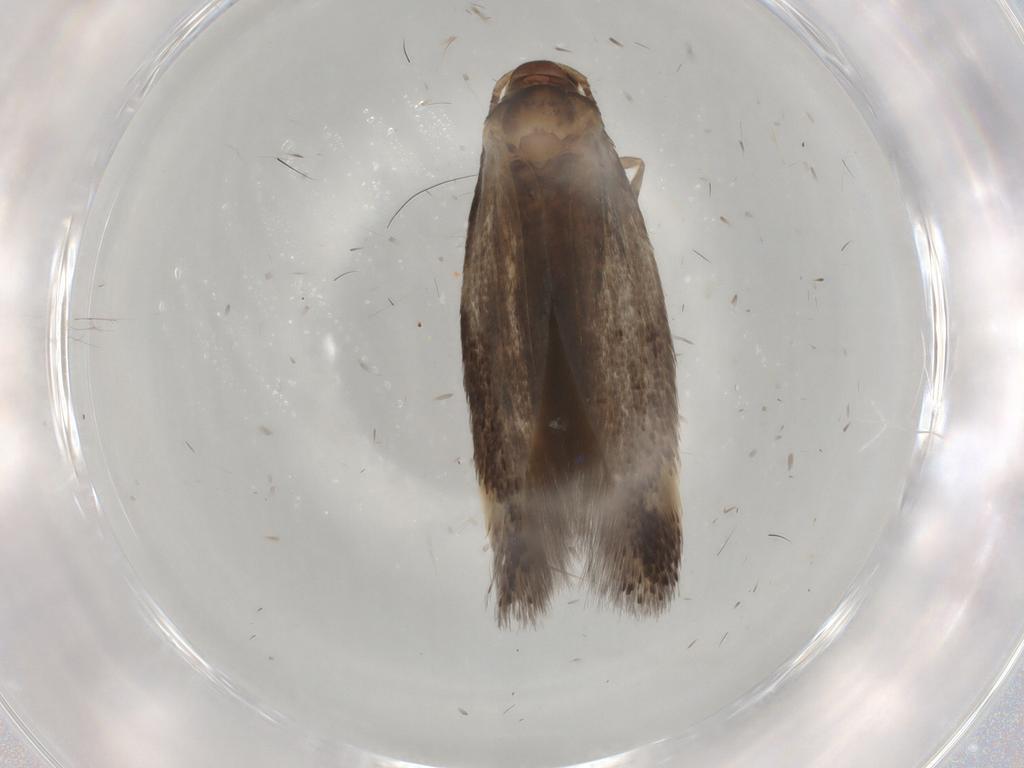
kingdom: Animalia
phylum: Arthropoda
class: Insecta
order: Lepidoptera
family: Elachistidae
